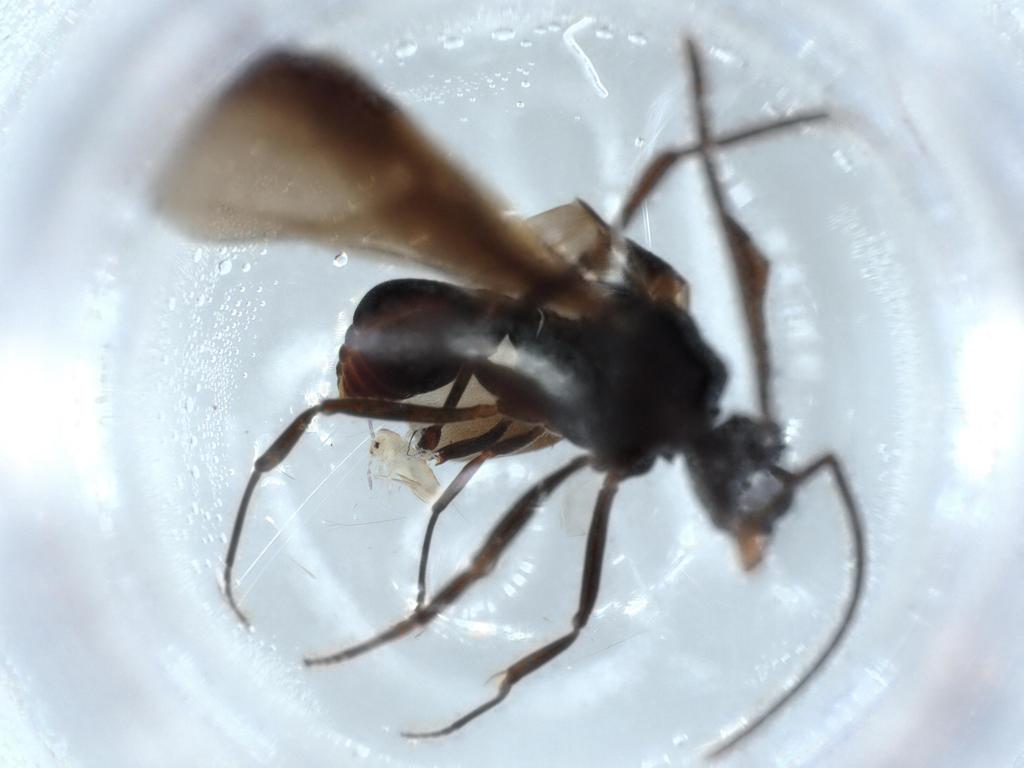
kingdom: Animalia
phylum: Arthropoda
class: Insecta
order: Hymenoptera
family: Formicidae
